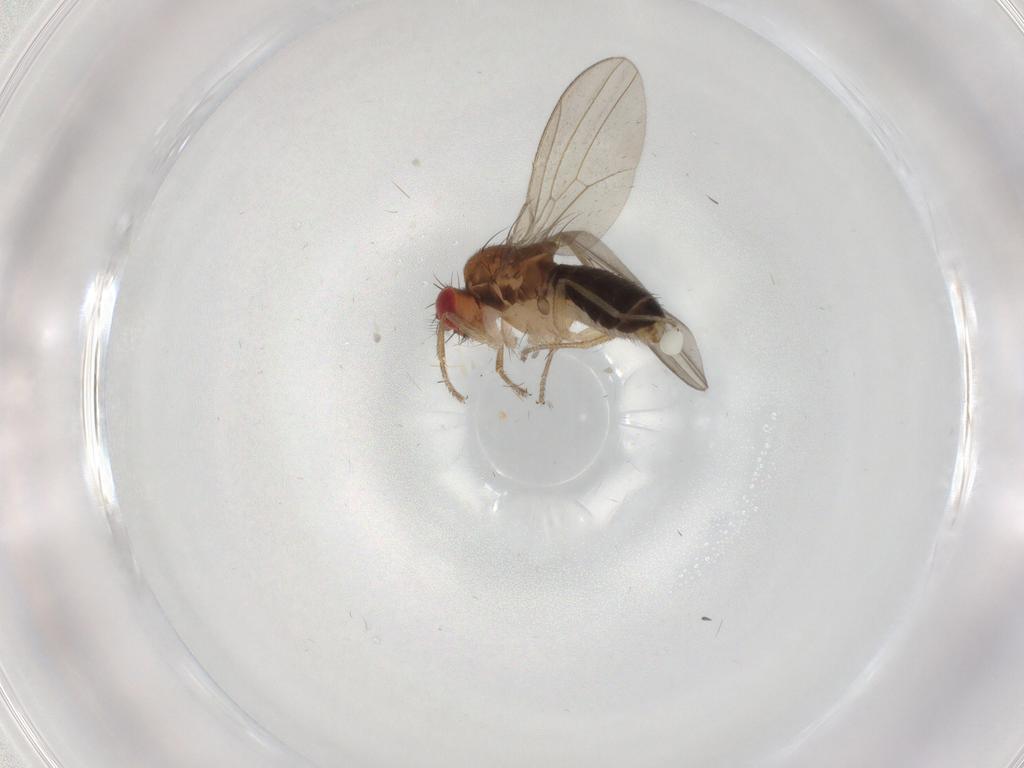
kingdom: Animalia
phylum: Arthropoda
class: Insecta
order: Diptera
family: Drosophilidae
